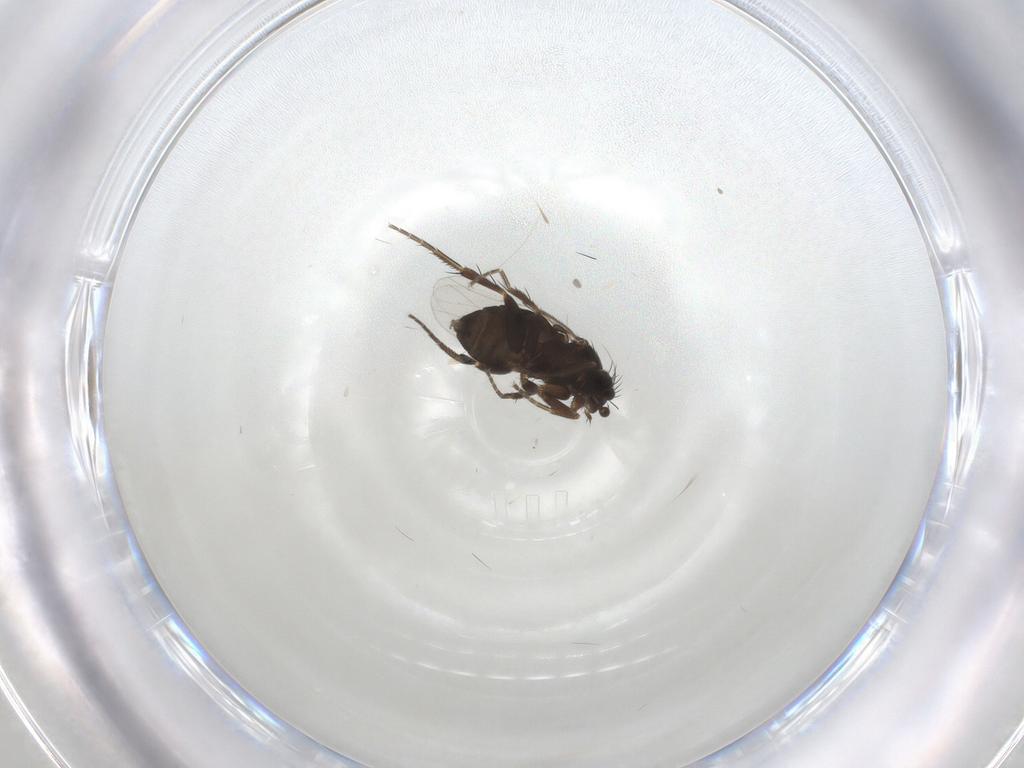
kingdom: Animalia
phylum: Arthropoda
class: Insecta
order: Diptera
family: Phoridae
